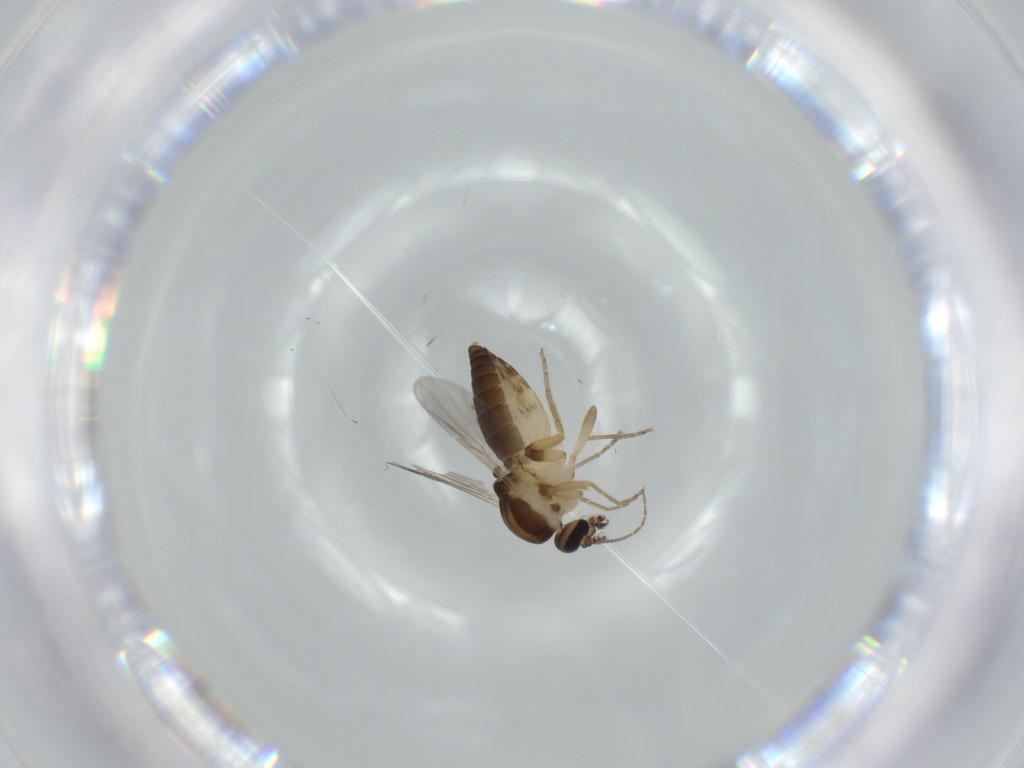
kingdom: Animalia
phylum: Arthropoda
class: Insecta
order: Diptera
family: Ceratopogonidae
